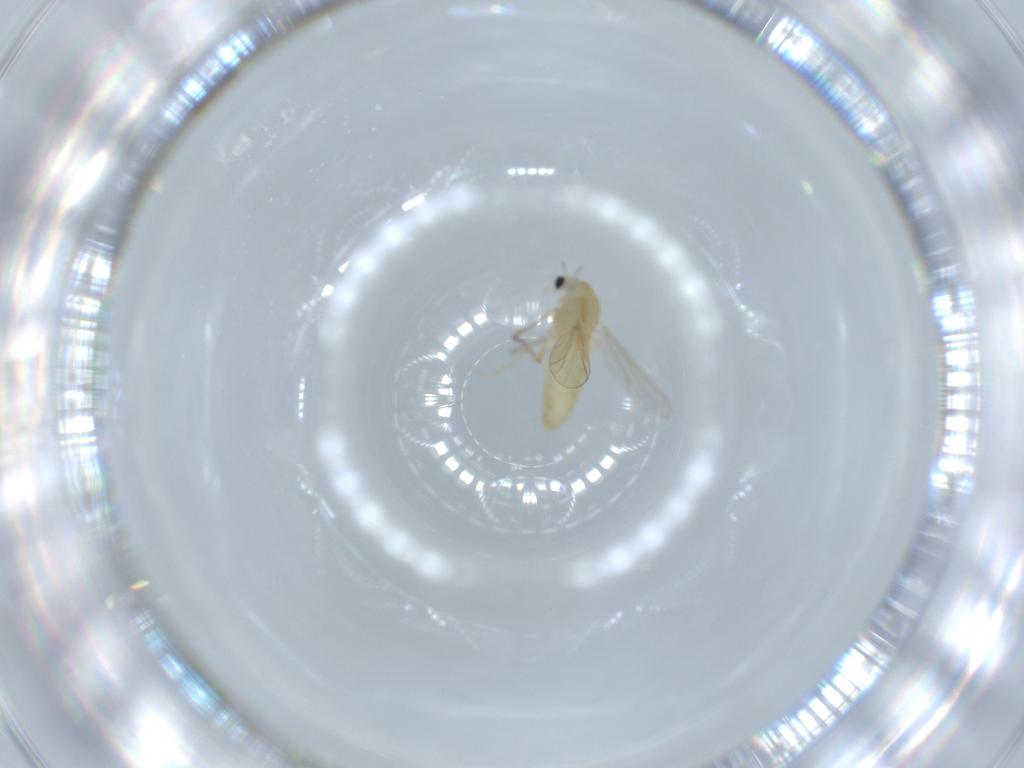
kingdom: Animalia
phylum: Arthropoda
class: Insecta
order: Diptera
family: Chironomidae
